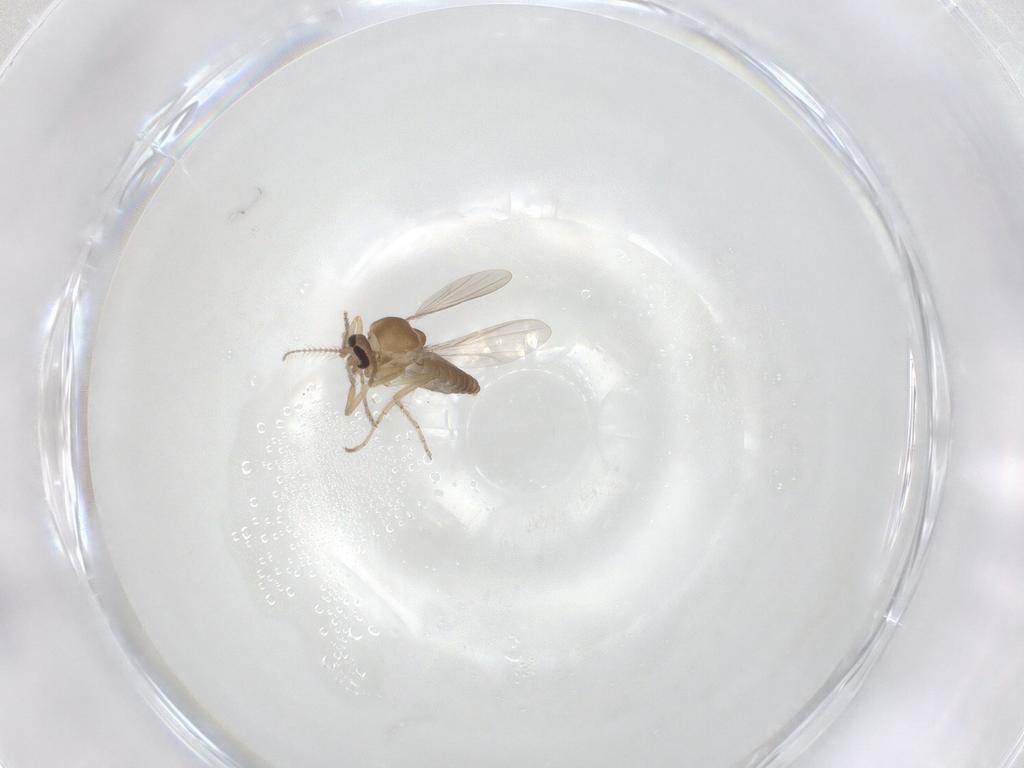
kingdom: Animalia
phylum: Arthropoda
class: Insecta
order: Diptera
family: Ceratopogonidae
